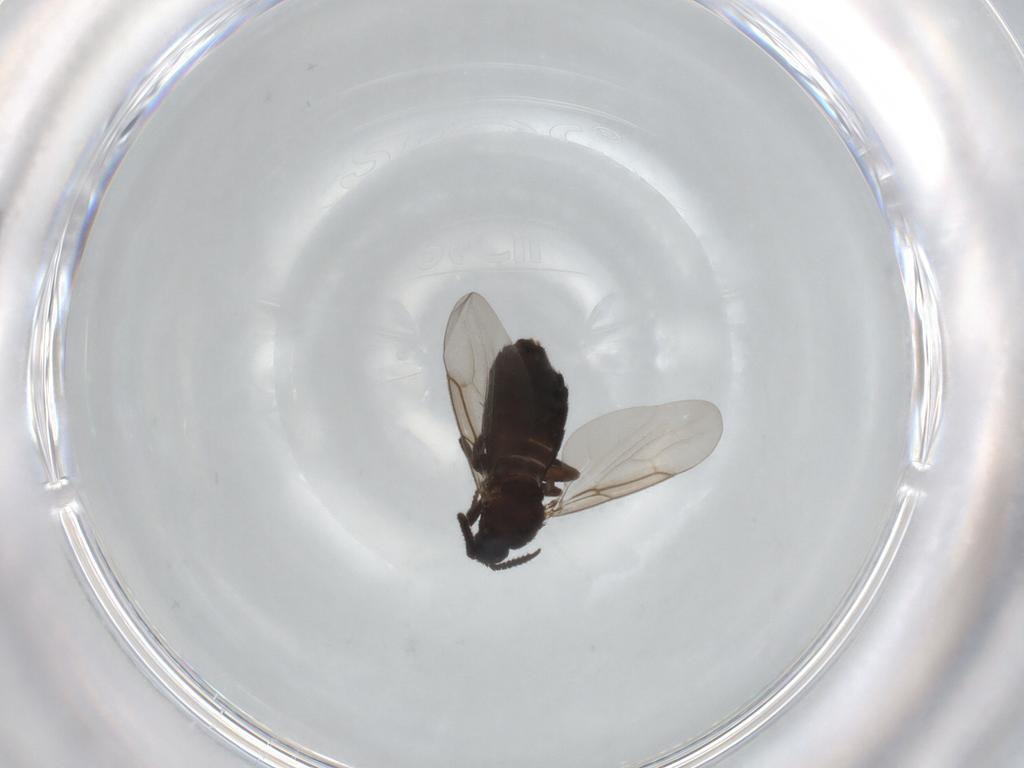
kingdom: Animalia
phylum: Arthropoda
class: Insecta
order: Diptera
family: Scatopsidae
